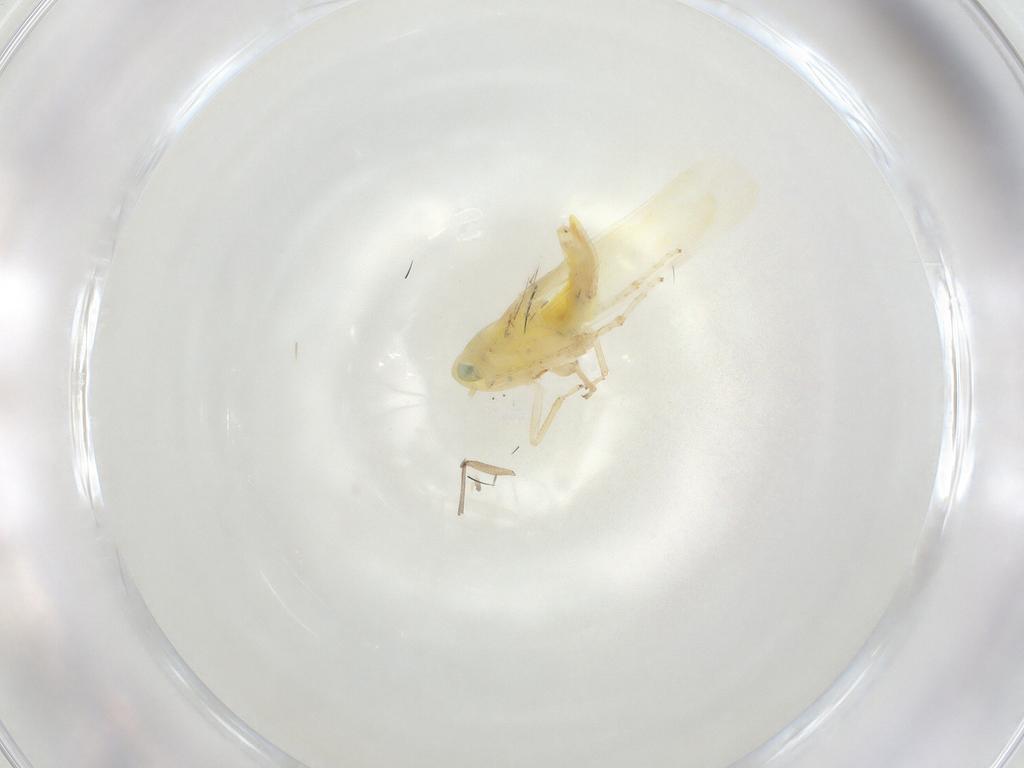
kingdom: Animalia
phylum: Arthropoda
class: Insecta
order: Hemiptera
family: Cicadellidae
